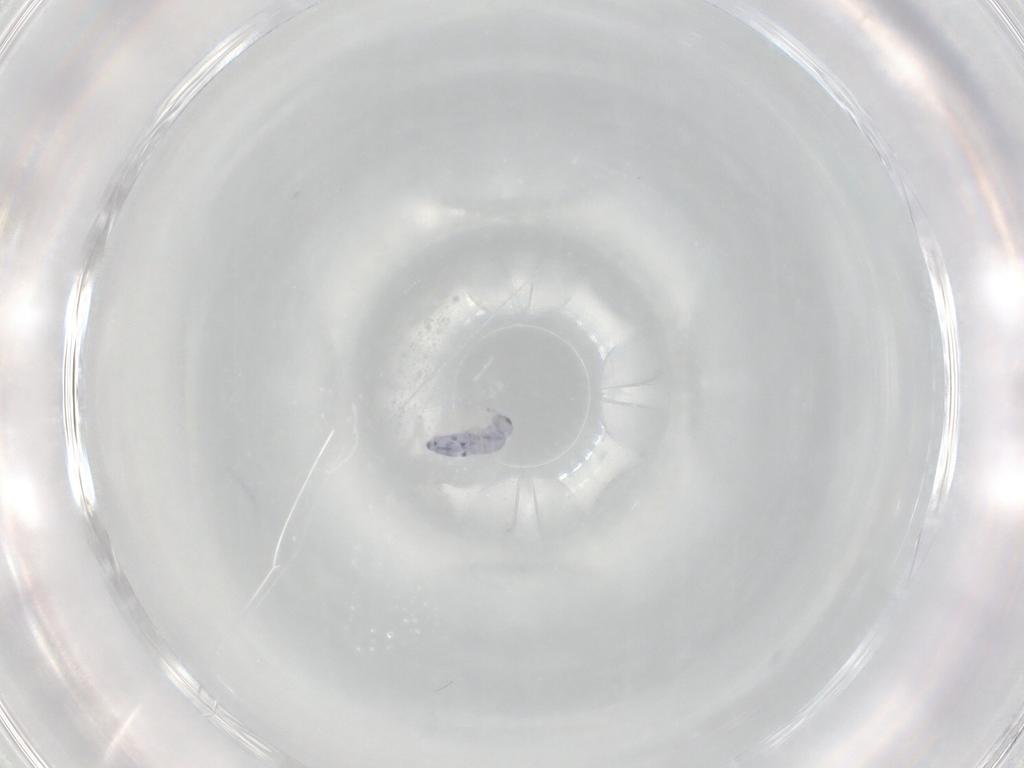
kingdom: Animalia
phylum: Arthropoda
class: Collembola
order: Entomobryomorpha
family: Entomobryidae
